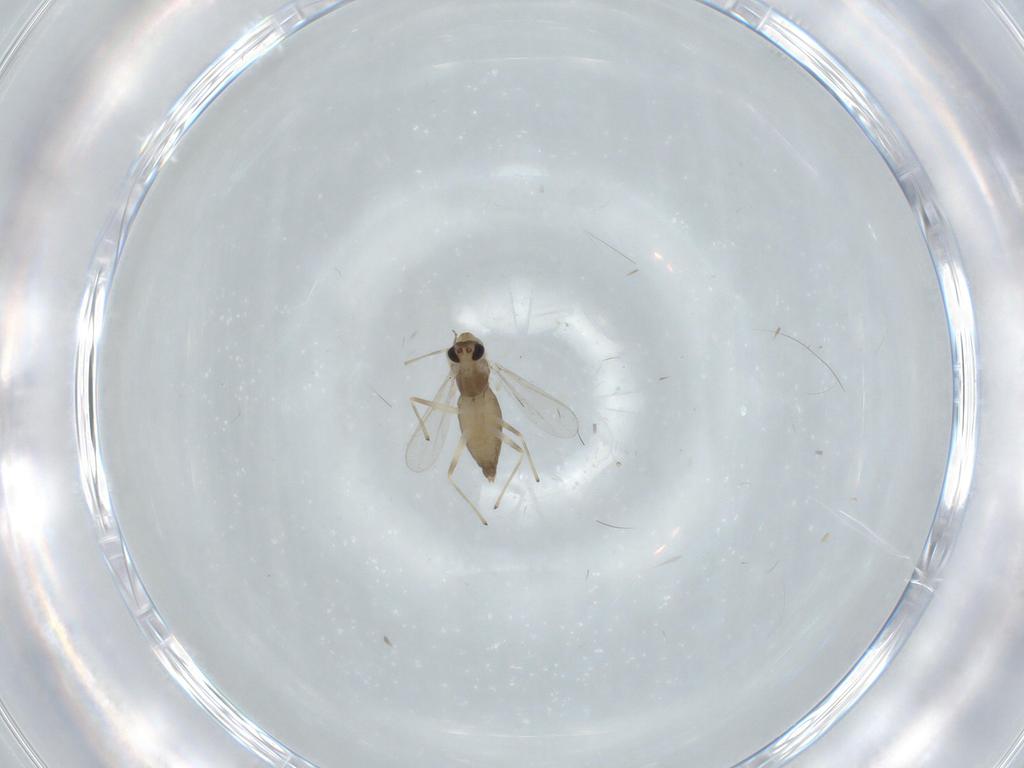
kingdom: Animalia
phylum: Arthropoda
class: Insecta
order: Diptera
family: Chironomidae
